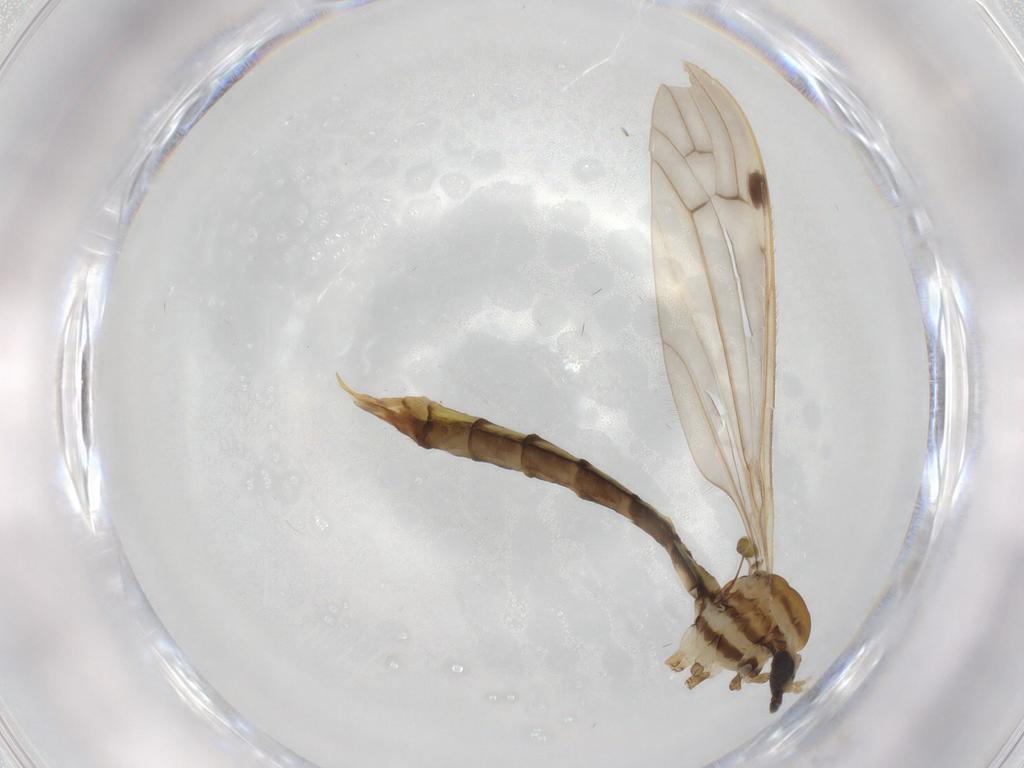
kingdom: Animalia
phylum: Arthropoda
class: Insecta
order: Diptera
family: Limoniidae
